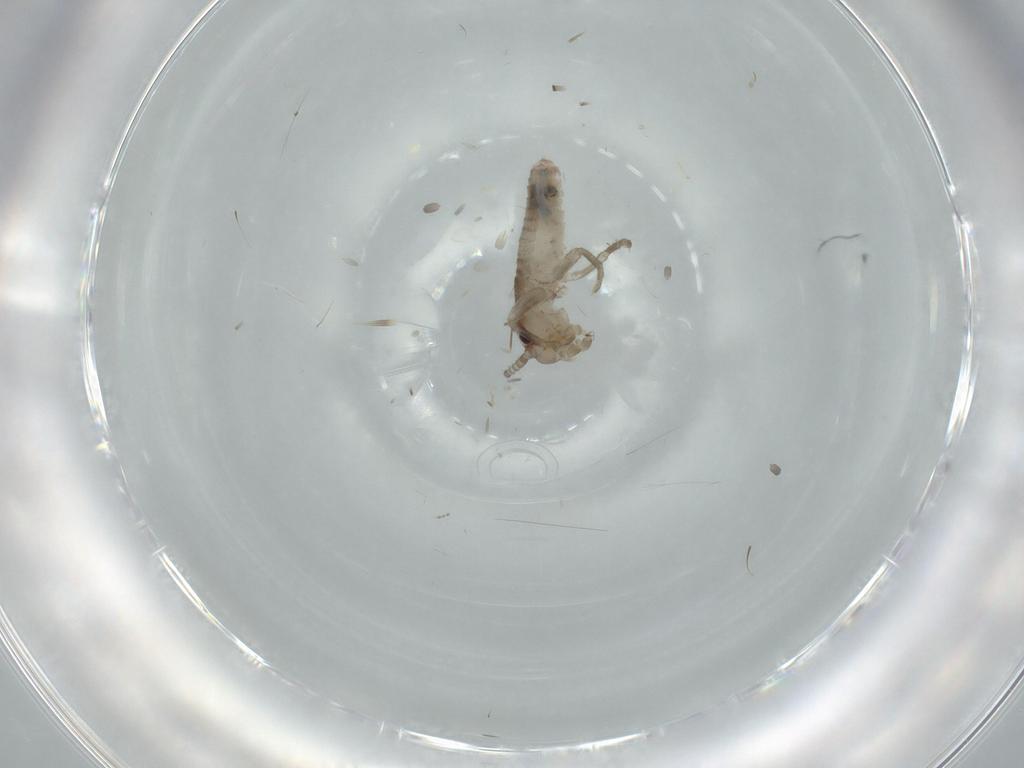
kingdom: Animalia
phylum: Arthropoda
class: Insecta
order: Orthoptera
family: Gryllidae
